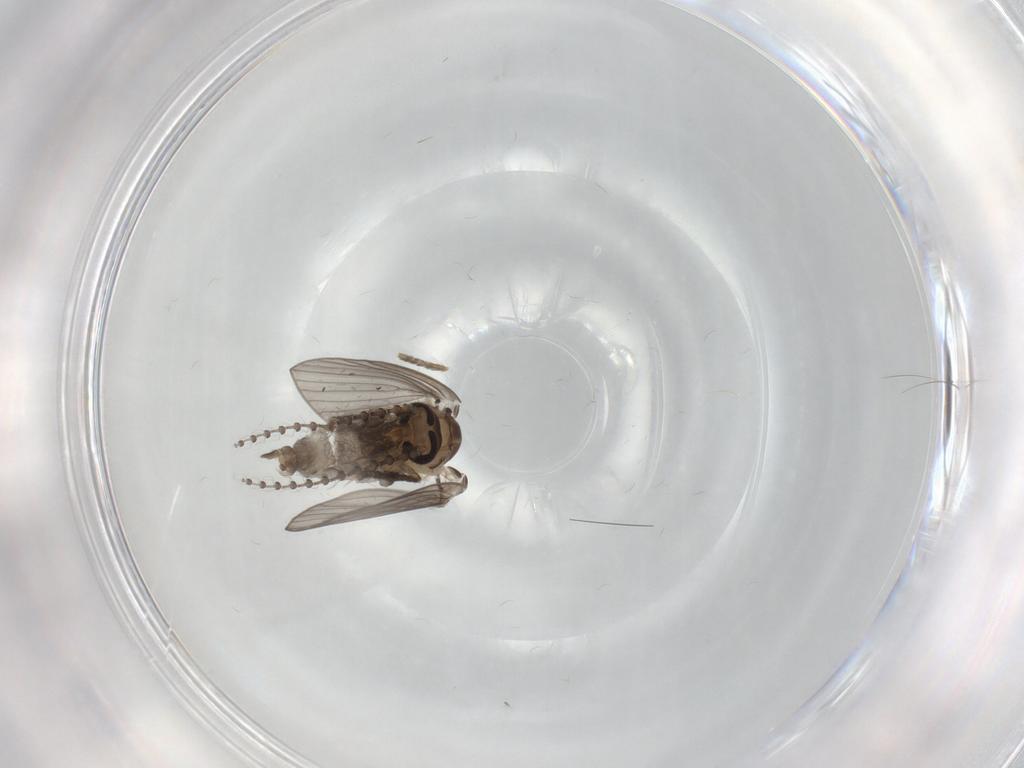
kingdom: Animalia
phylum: Arthropoda
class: Insecta
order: Diptera
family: Psychodidae
